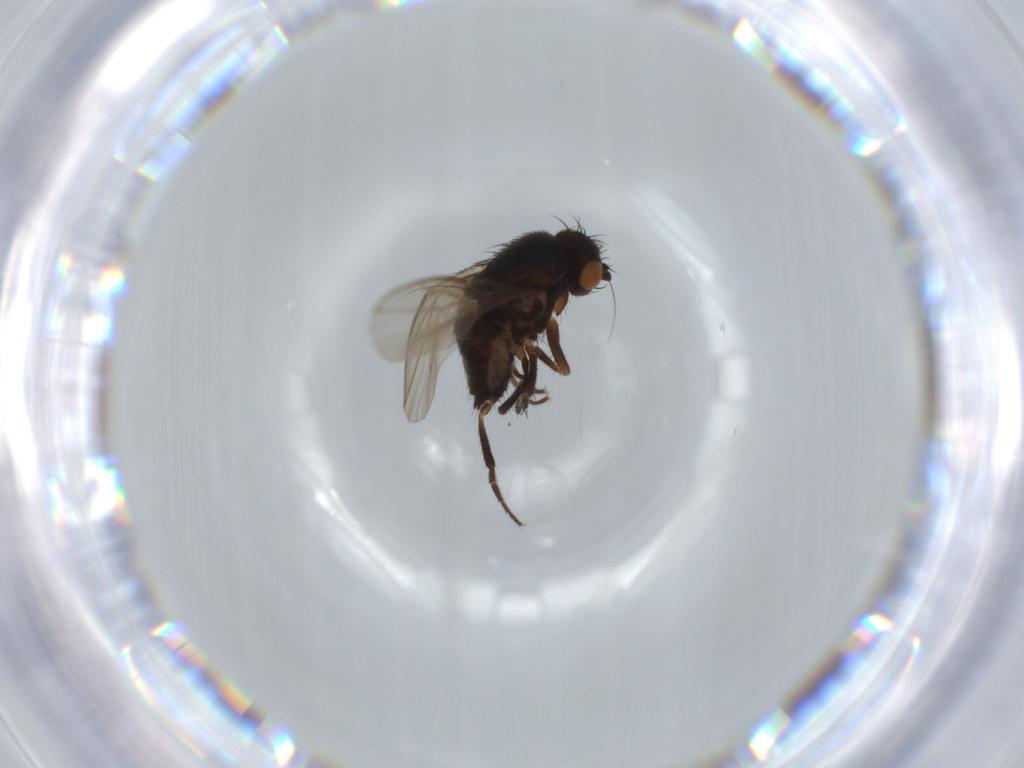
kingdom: Animalia
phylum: Arthropoda
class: Insecta
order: Diptera
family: Sphaeroceridae
